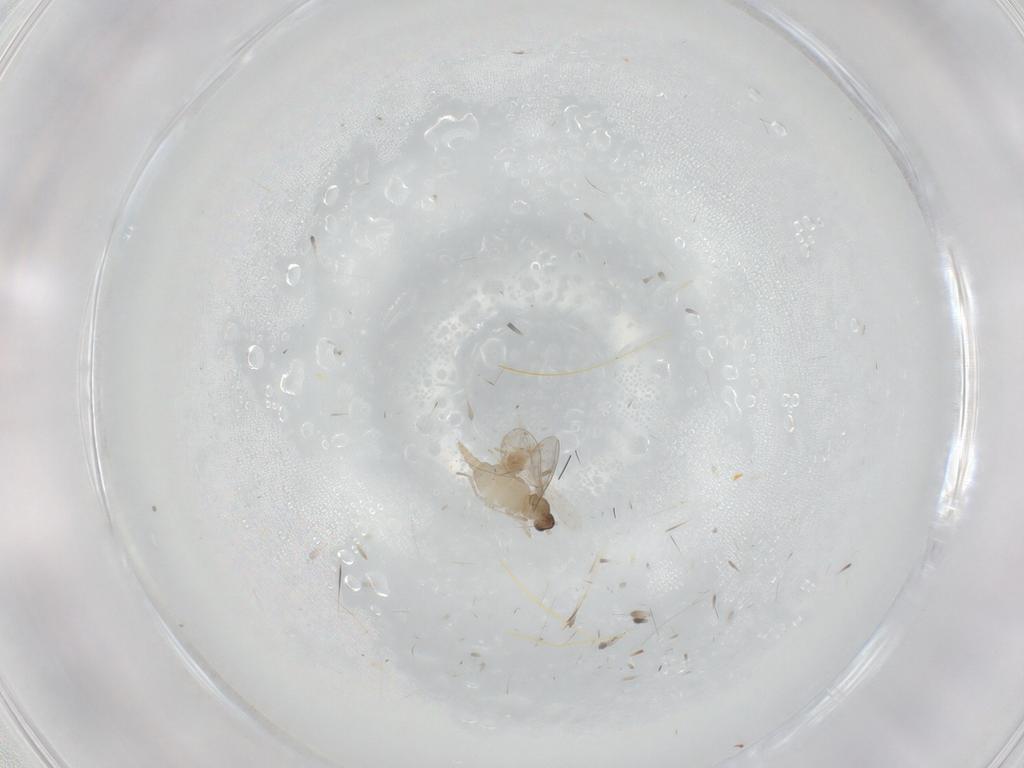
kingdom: Animalia
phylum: Arthropoda
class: Insecta
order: Diptera
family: Cecidomyiidae
